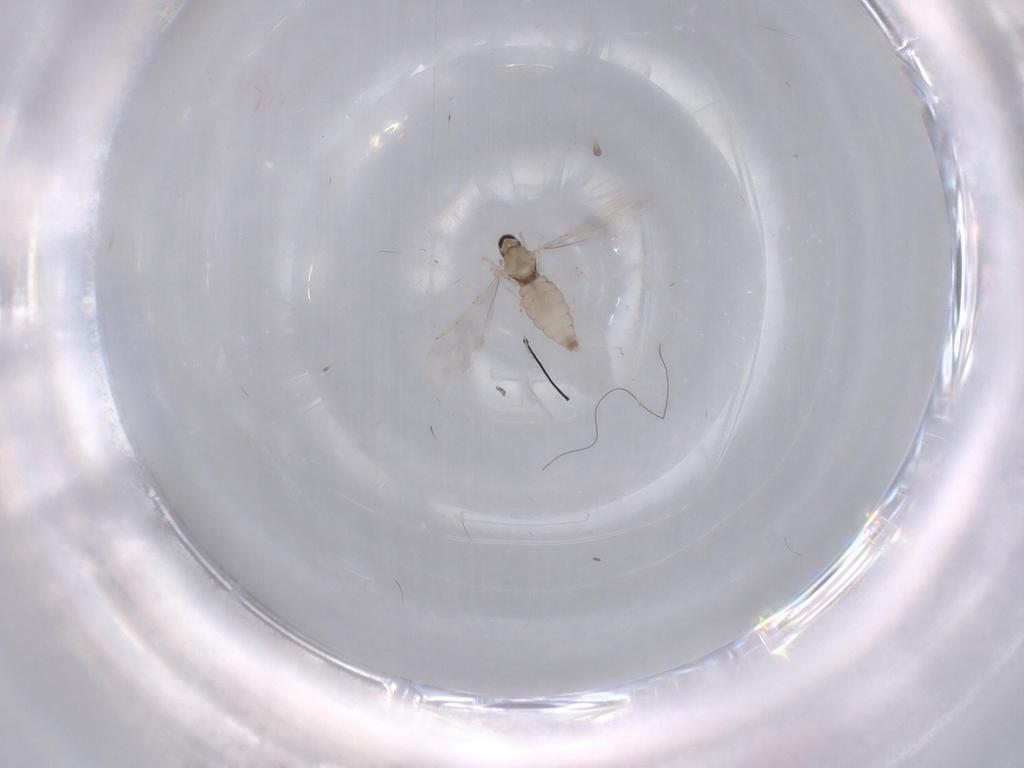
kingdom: Animalia
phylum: Arthropoda
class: Insecta
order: Diptera
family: Cecidomyiidae
